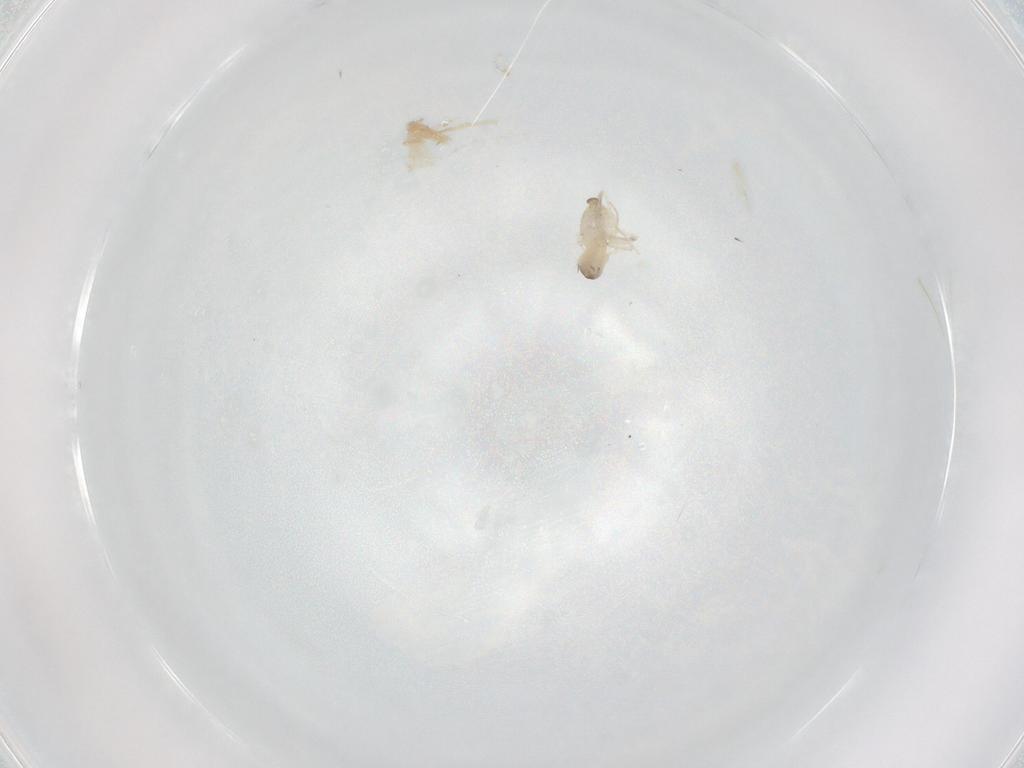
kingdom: Animalia
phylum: Arthropoda
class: Insecta
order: Diptera
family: Cecidomyiidae
